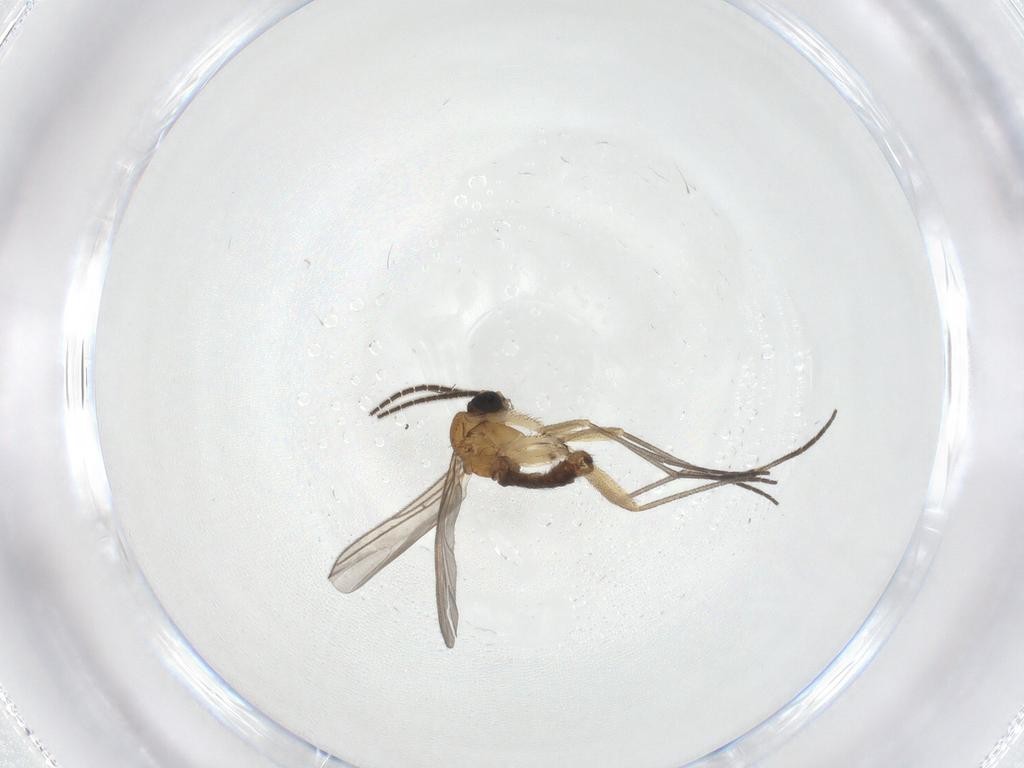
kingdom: Animalia
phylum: Arthropoda
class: Insecta
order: Diptera
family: Sciaridae
